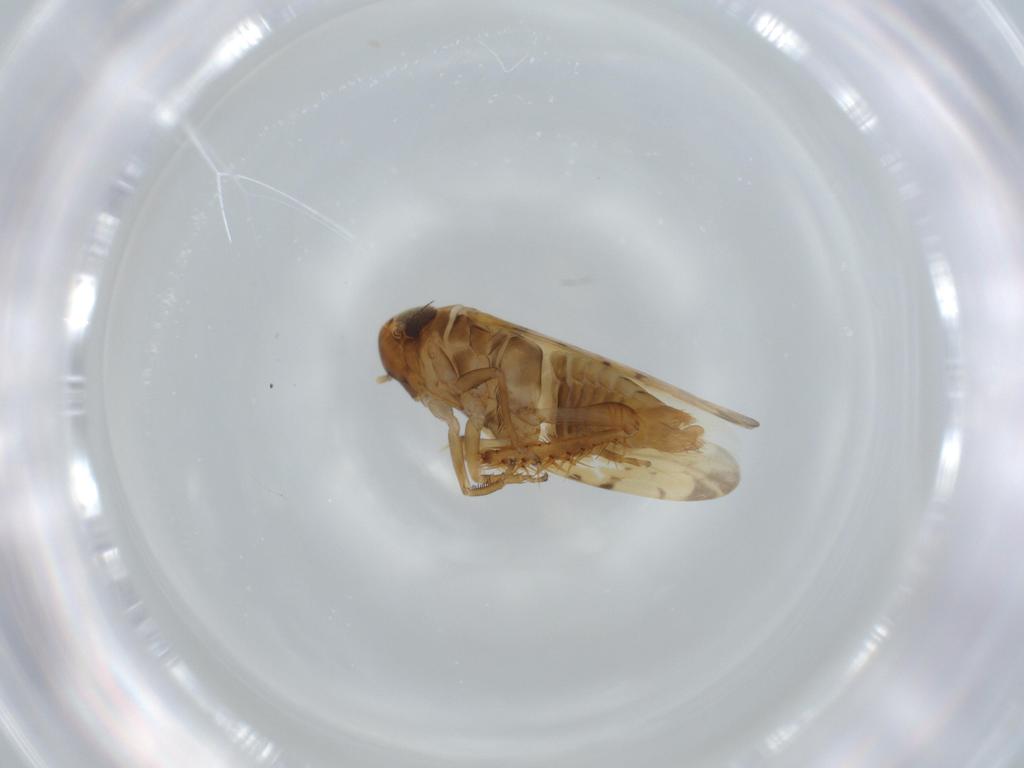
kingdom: Animalia
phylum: Arthropoda
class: Insecta
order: Hemiptera
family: Cicadellidae
